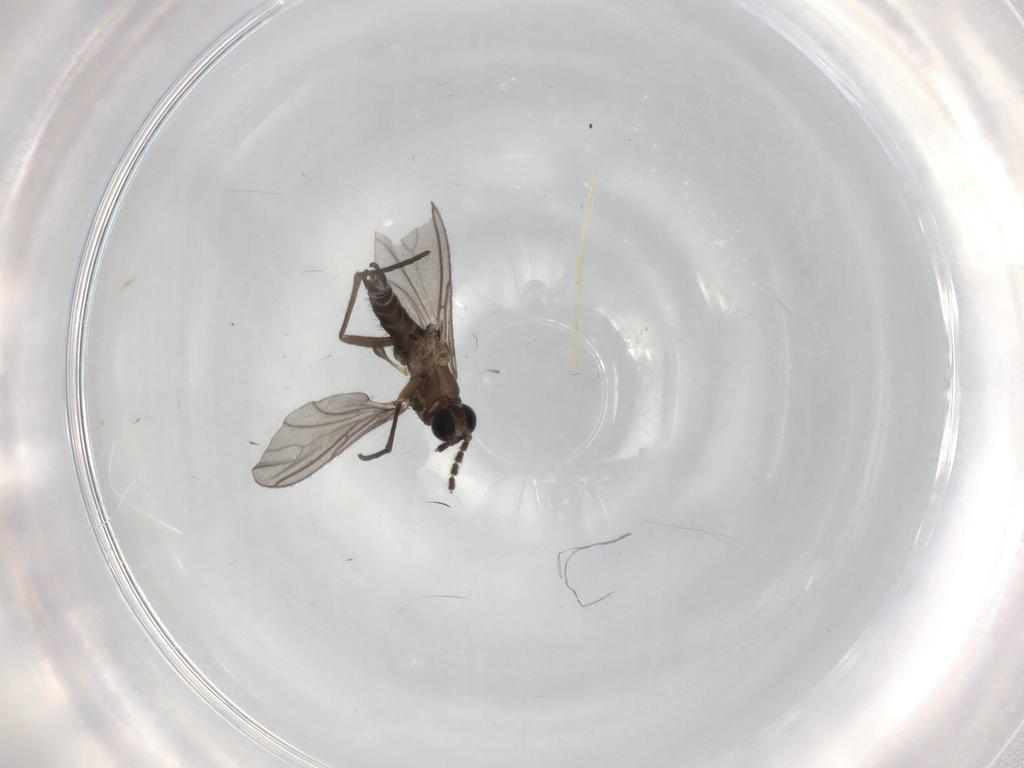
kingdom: Animalia
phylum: Arthropoda
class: Insecta
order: Diptera
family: Sciaridae
